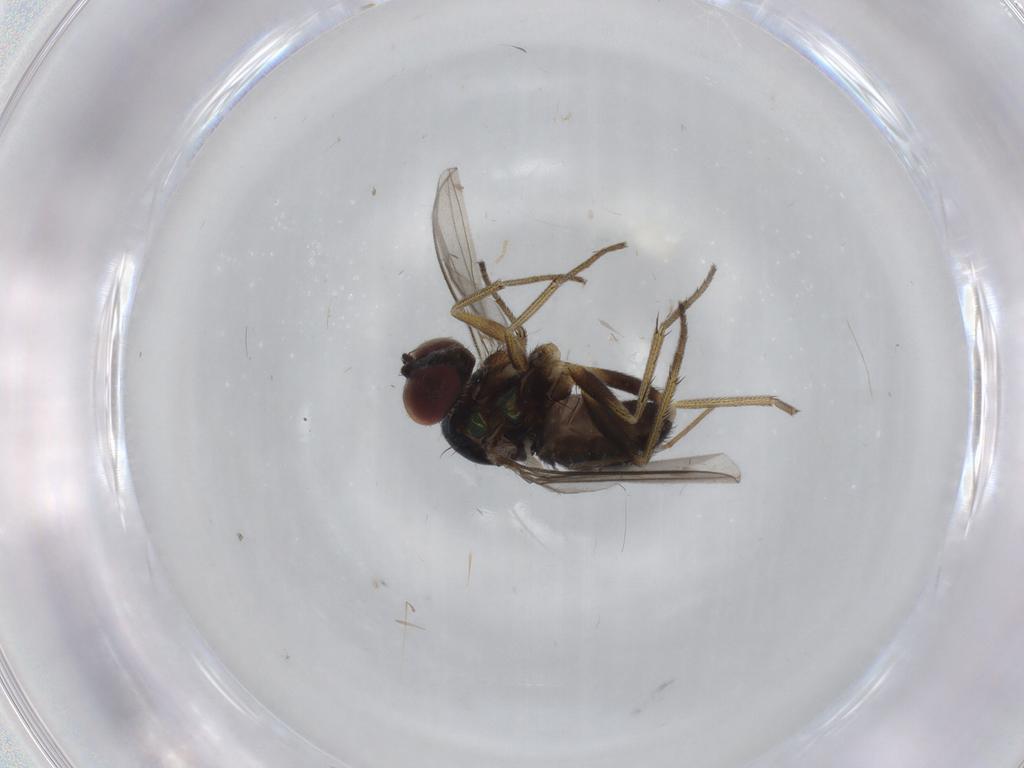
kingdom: Animalia
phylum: Arthropoda
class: Insecta
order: Diptera
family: Dolichopodidae
